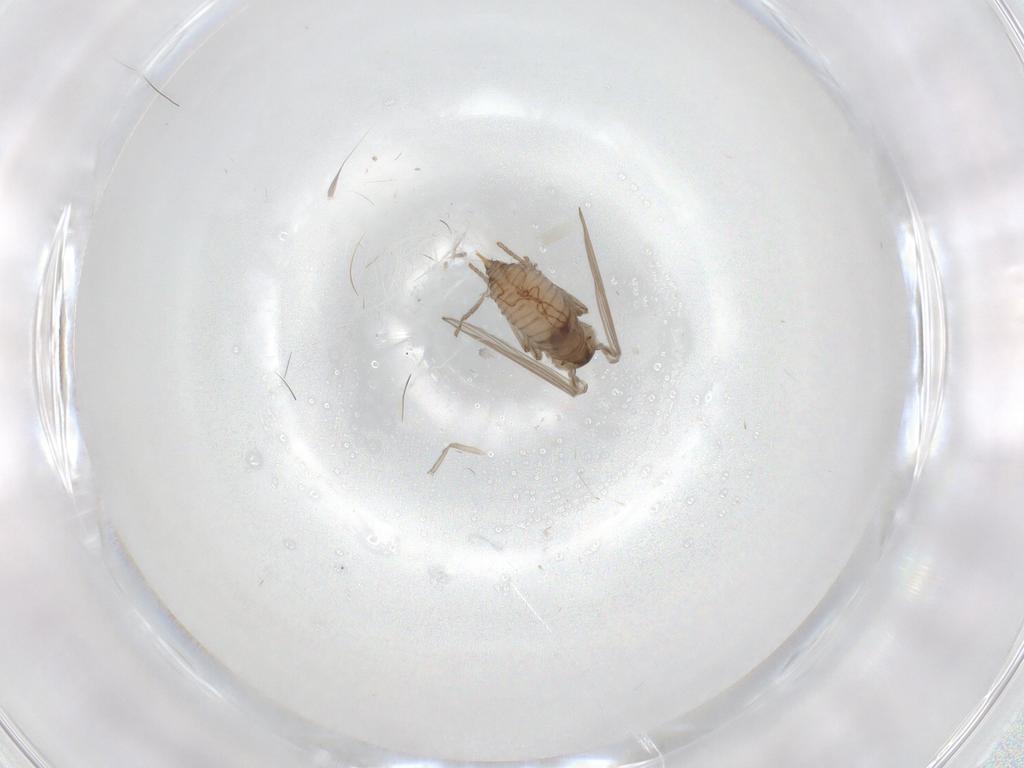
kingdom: Animalia
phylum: Arthropoda
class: Insecta
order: Diptera
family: Psychodidae
